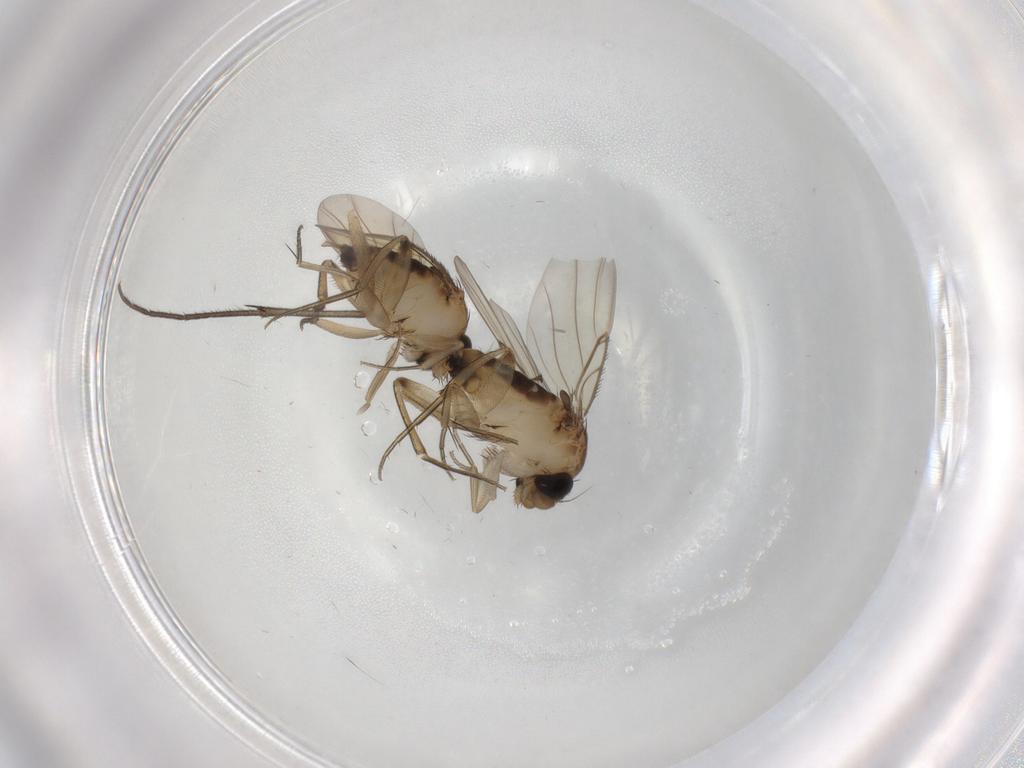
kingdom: Animalia
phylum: Arthropoda
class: Insecta
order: Diptera
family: Phoridae
